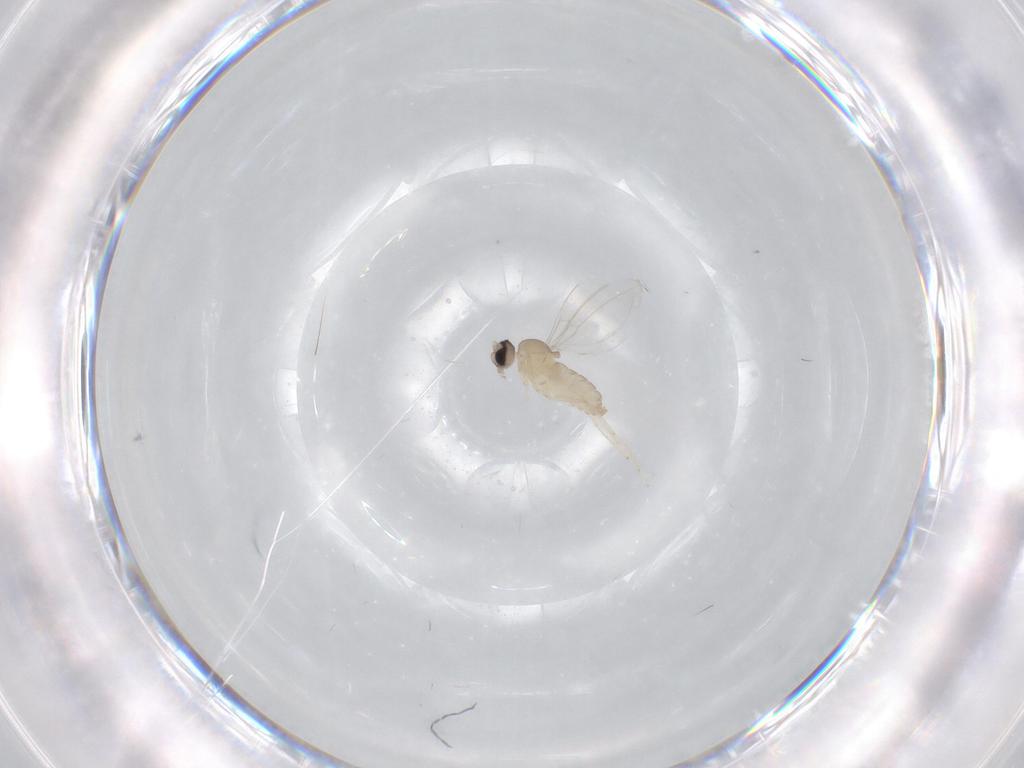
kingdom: Animalia
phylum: Arthropoda
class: Insecta
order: Diptera
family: Cecidomyiidae
